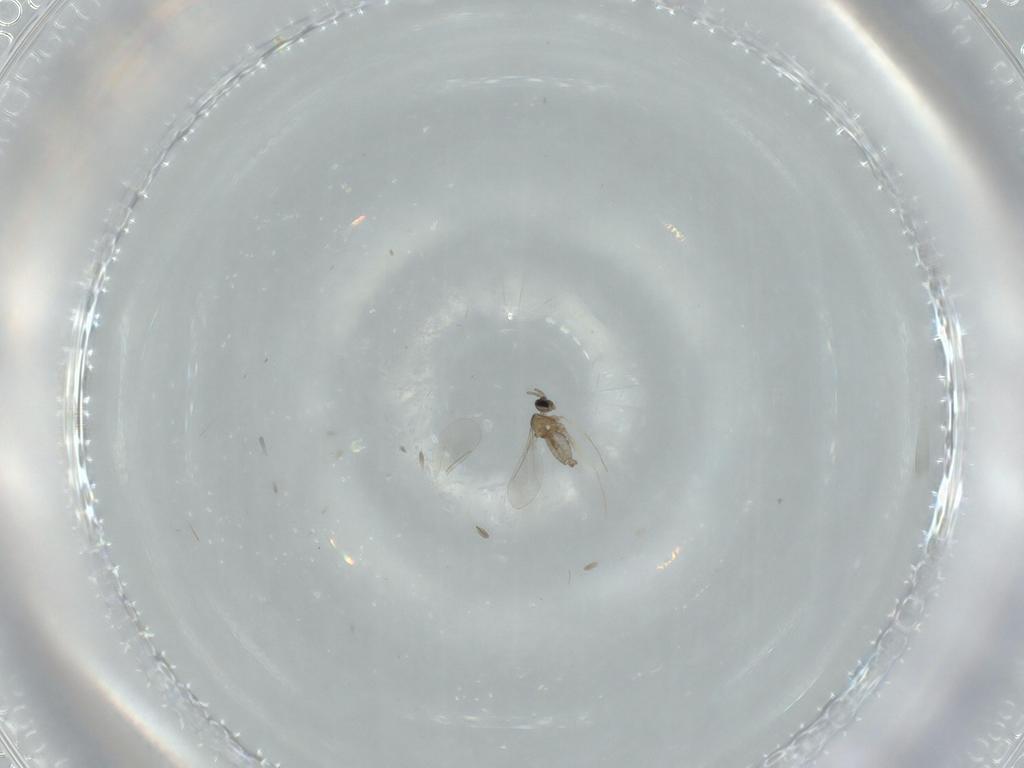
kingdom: Animalia
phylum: Arthropoda
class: Insecta
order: Diptera
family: Cecidomyiidae
